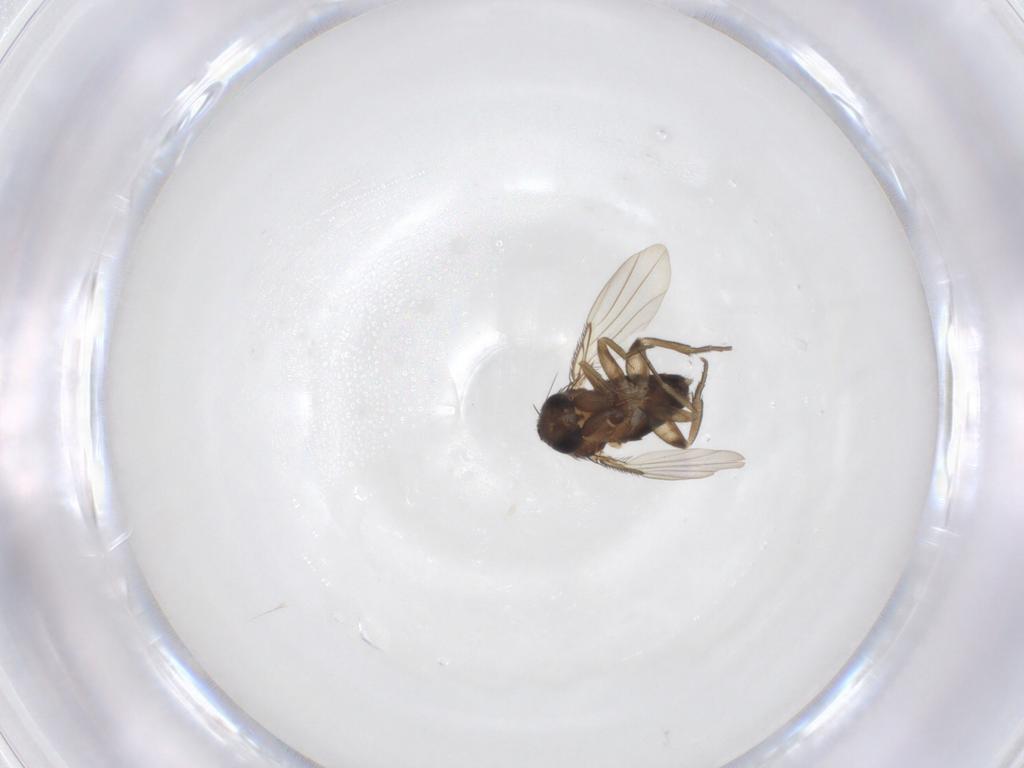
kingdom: Animalia
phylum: Arthropoda
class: Insecta
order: Diptera
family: Phoridae
